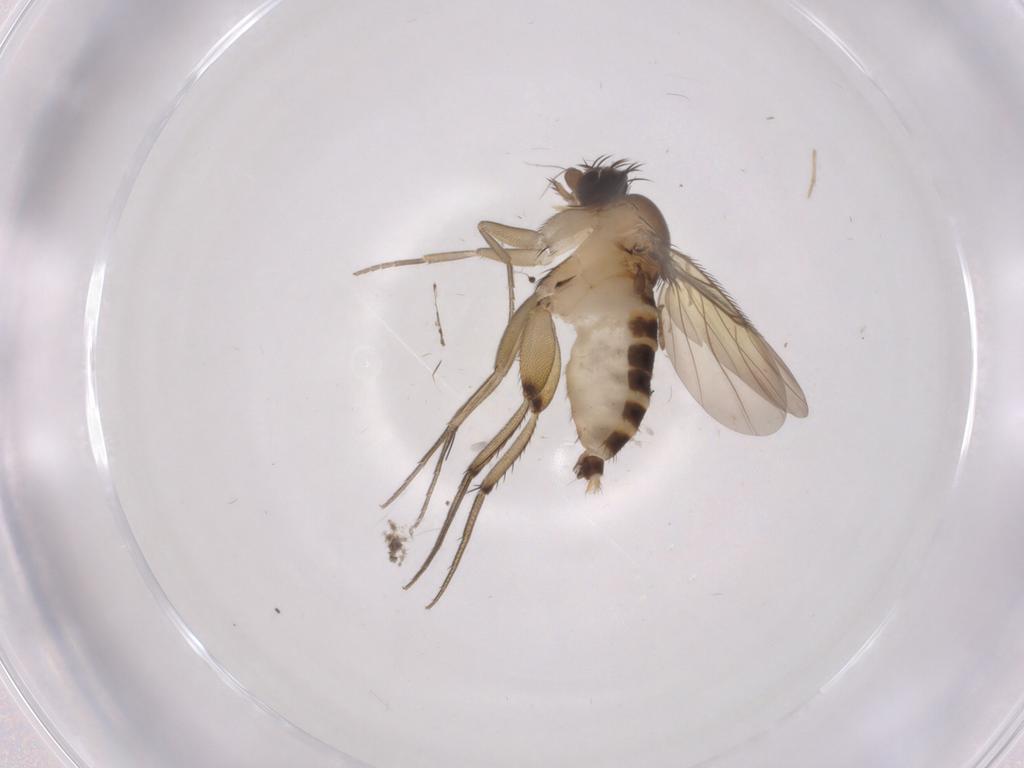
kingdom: Animalia
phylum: Arthropoda
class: Insecta
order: Diptera
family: Phoridae
